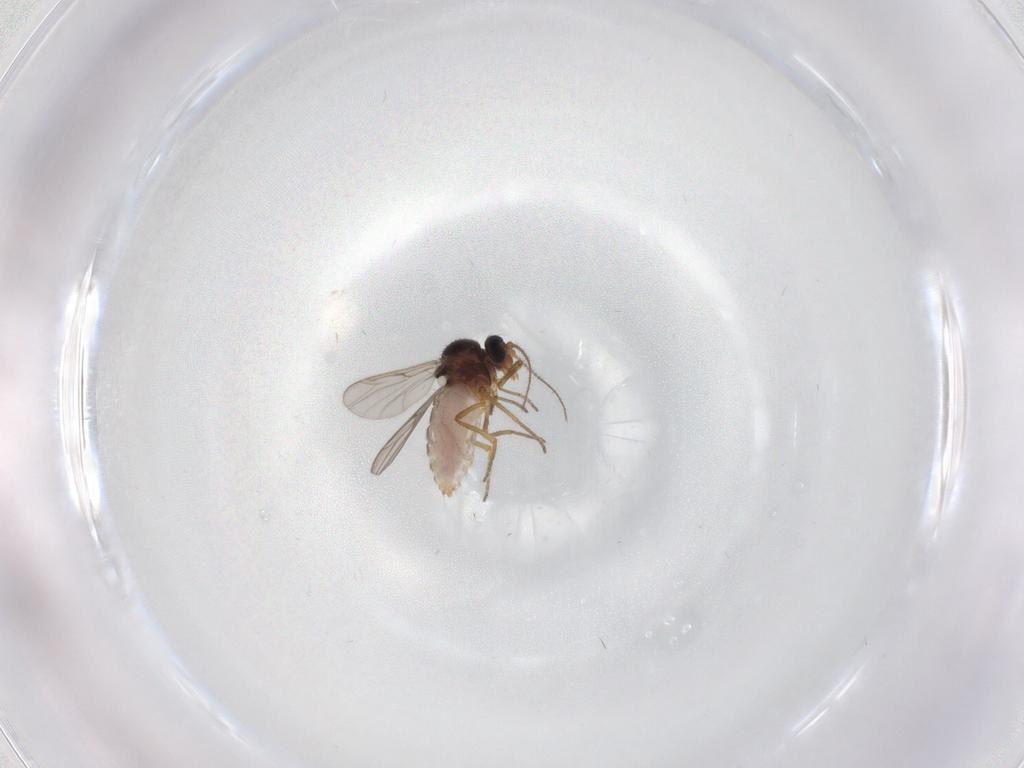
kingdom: Animalia
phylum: Arthropoda
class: Insecta
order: Diptera
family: Ceratopogonidae
